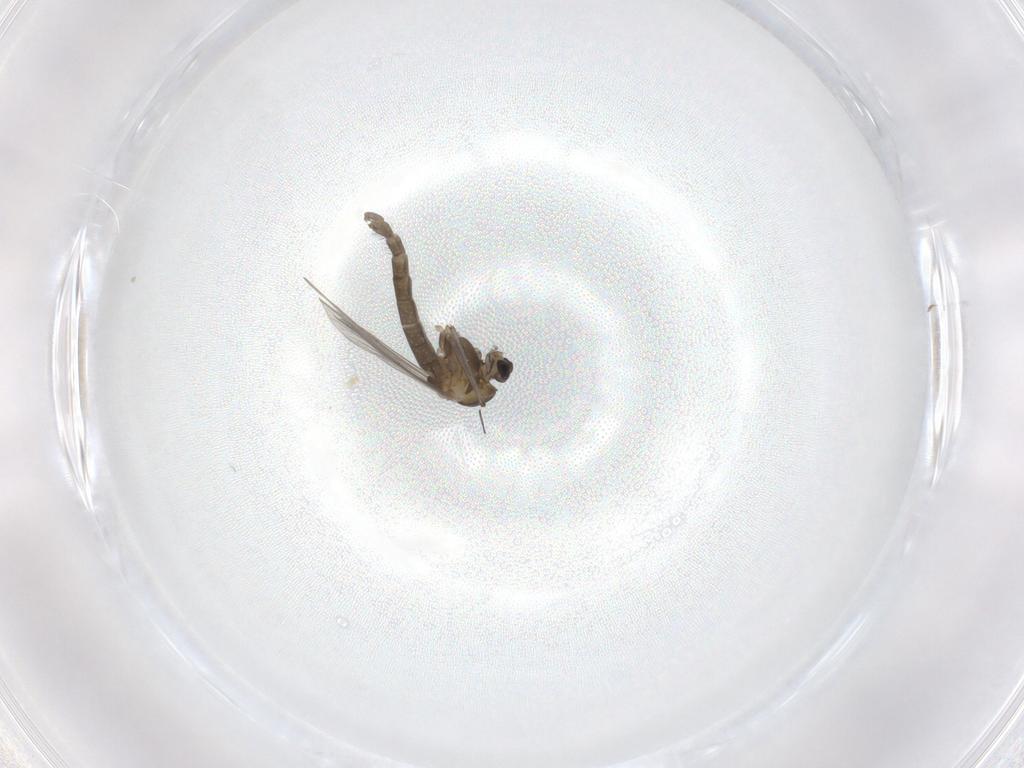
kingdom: Animalia
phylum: Arthropoda
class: Insecta
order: Diptera
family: Chironomidae
